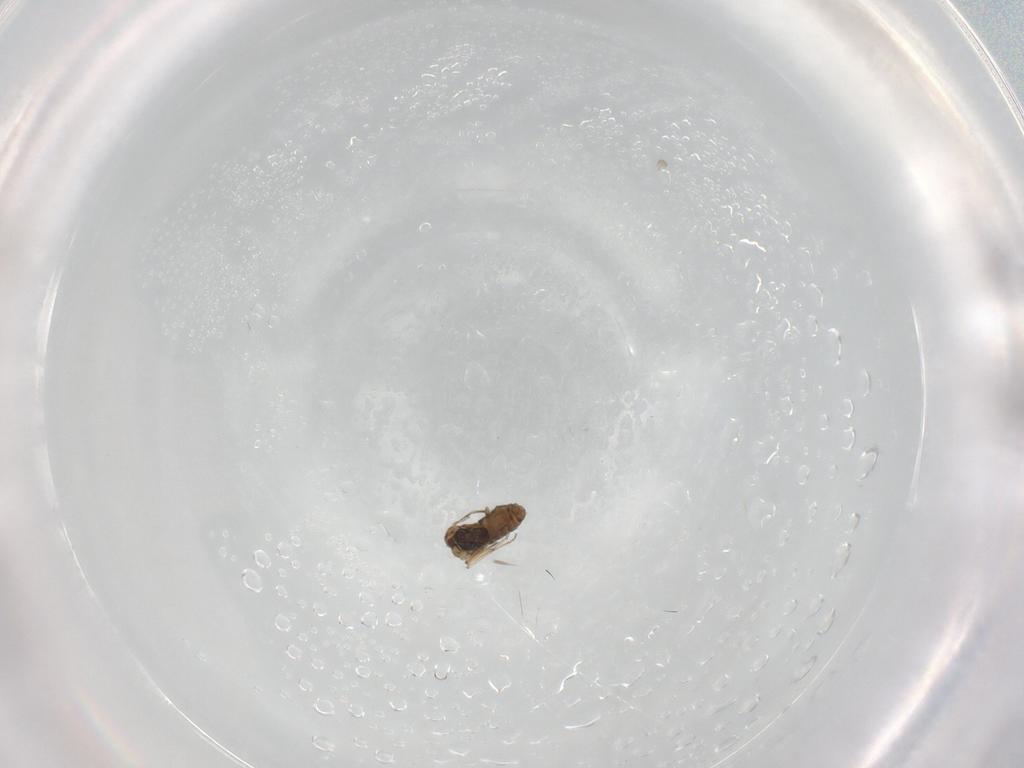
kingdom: Animalia
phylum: Arthropoda
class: Insecta
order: Diptera
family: Cecidomyiidae
